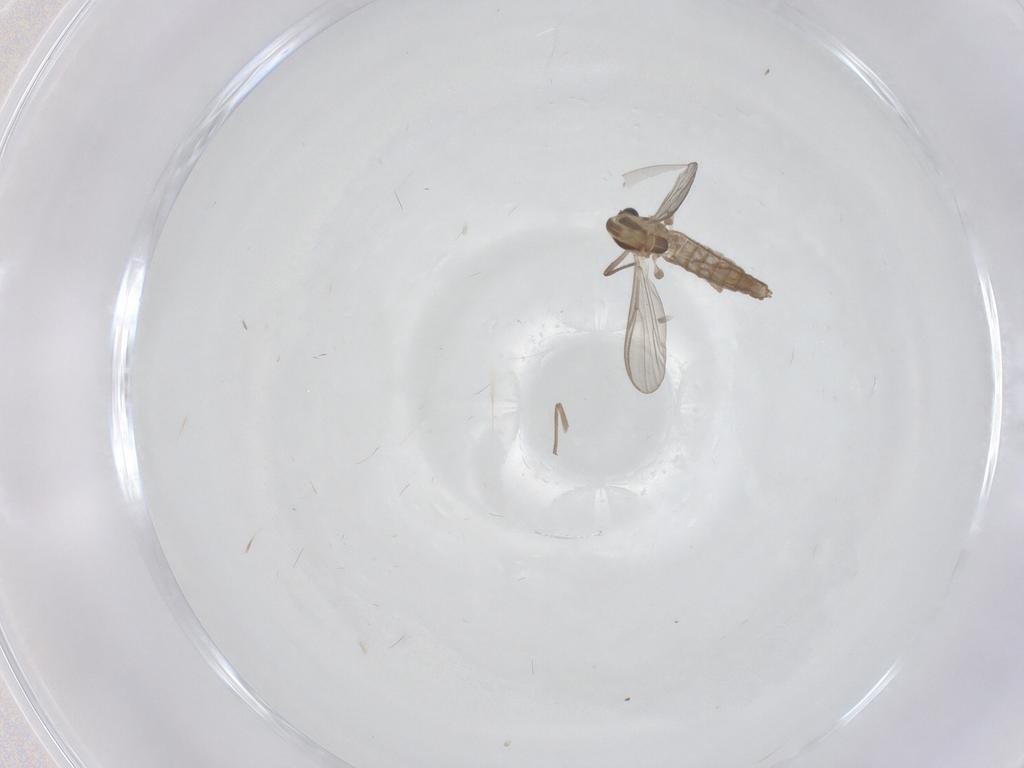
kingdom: Animalia
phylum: Arthropoda
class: Insecta
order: Diptera
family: Chironomidae
